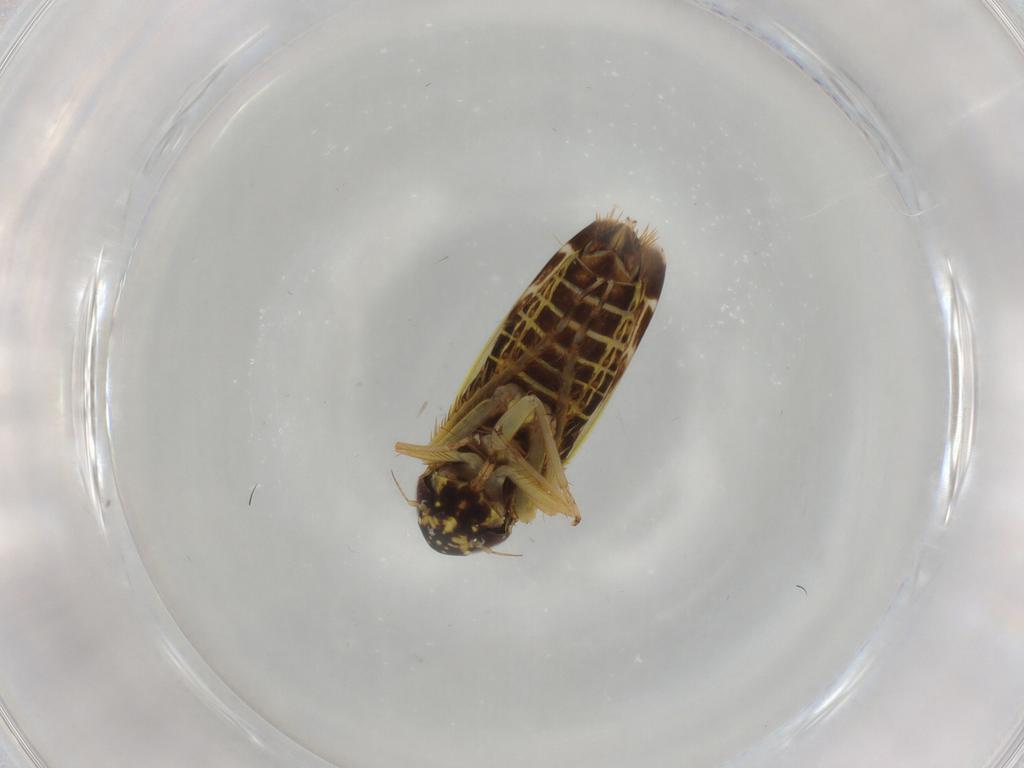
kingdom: Animalia
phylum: Arthropoda
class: Insecta
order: Hemiptera
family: Cicadellidae
